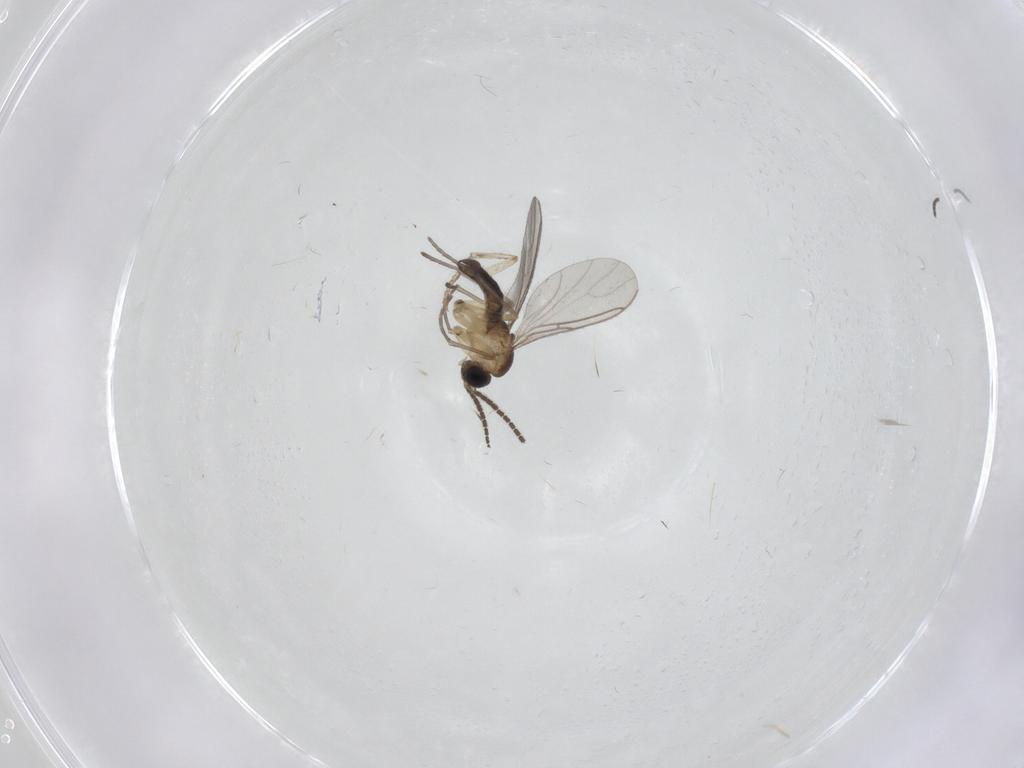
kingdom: Animalia
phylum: Arthropoda
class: Insecta
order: Diptera
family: Sciaridae
